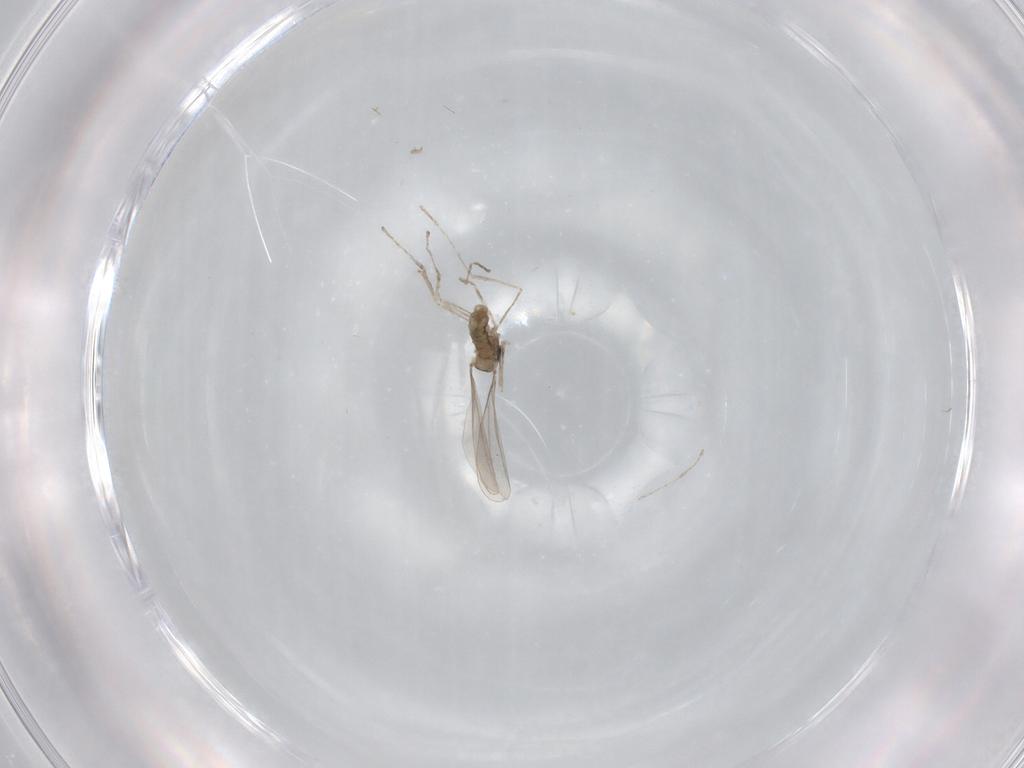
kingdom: Animalia
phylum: Arthropoda
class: Insecta
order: Diptera
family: Cecidomyiidae
